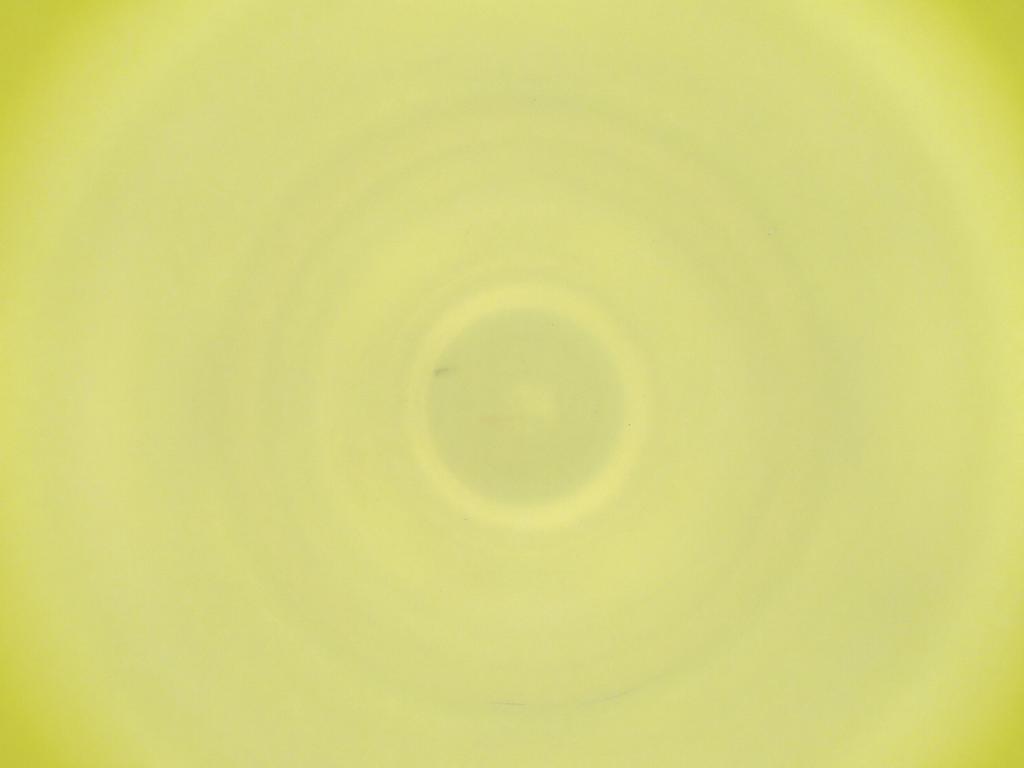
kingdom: Animalia
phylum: Arthropoda
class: Insecta
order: Diptera
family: Cecidomyiidae
